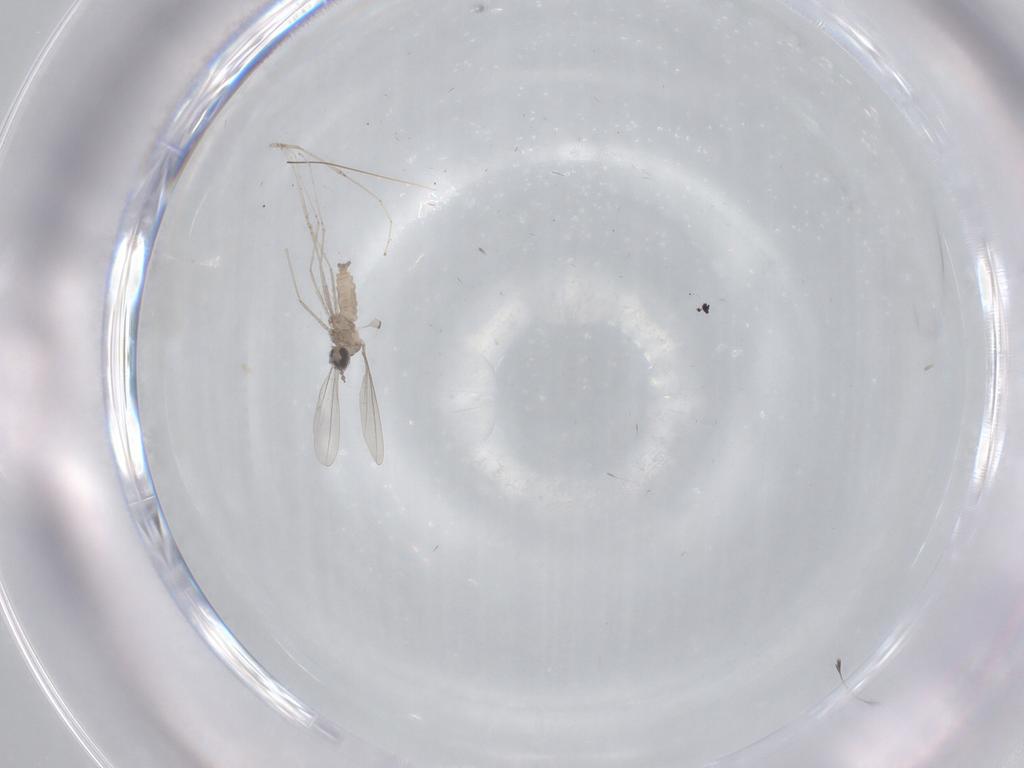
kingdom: Animalia
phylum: Arthropoda
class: Insecta
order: Diptera
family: Cecidomyiidae
